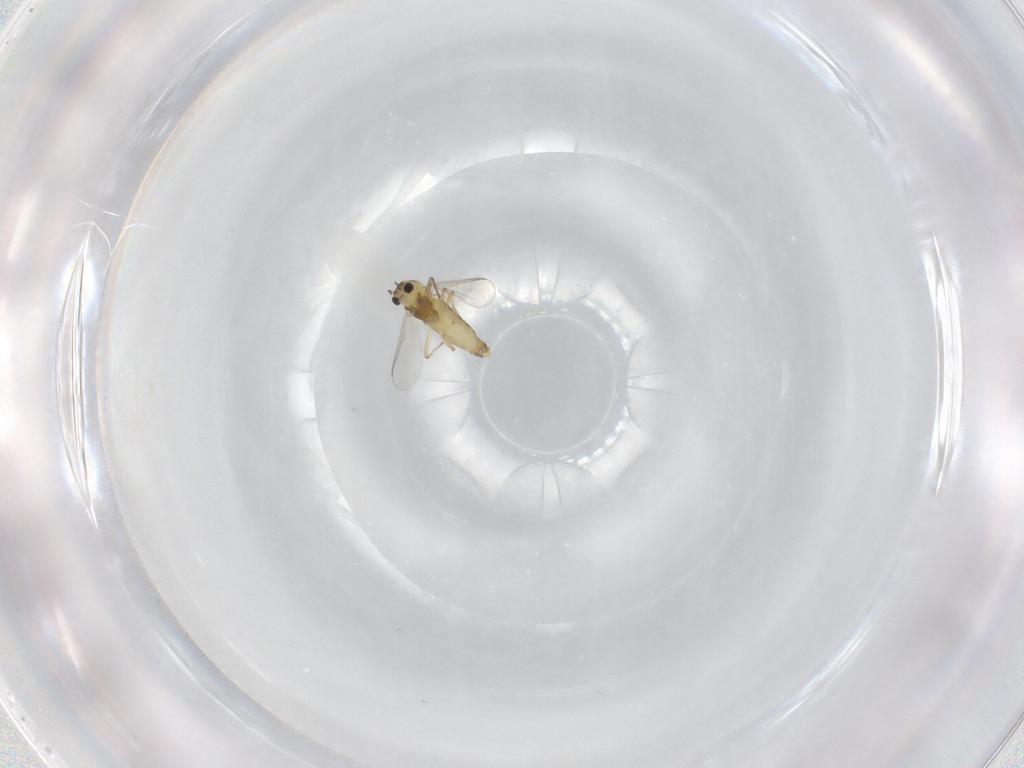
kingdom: Animalia
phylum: Arthropoda
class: Insecta
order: Diptera
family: Chironomidae
